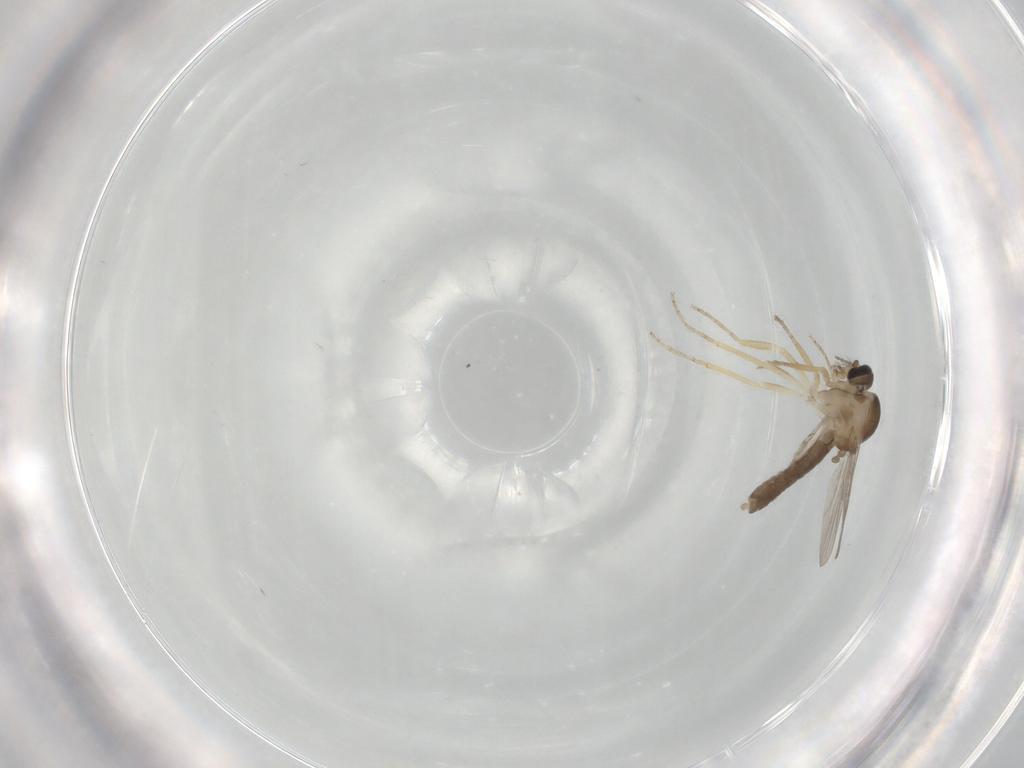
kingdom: Animalia
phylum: Arthropoda
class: Insecta
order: Diptera
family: Ceratopogonidae
